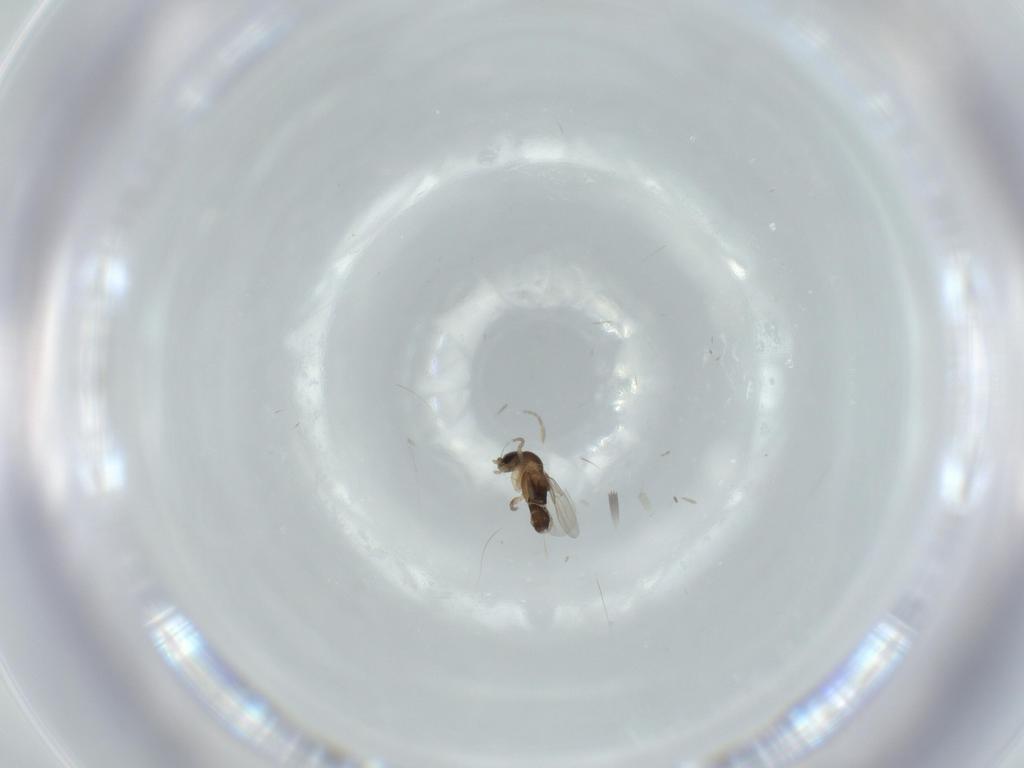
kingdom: Animalia
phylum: Arthropoda
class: Insecta
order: Diptera
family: Phoridae
